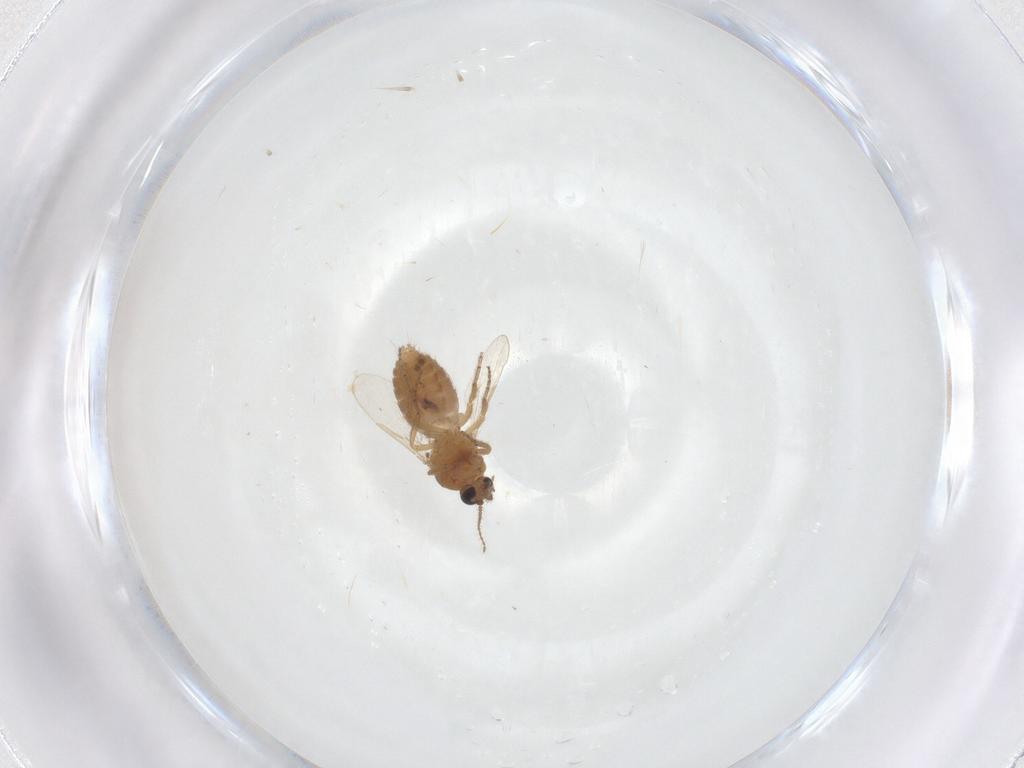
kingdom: Animalia
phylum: Arthropoda
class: Insecta
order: Diptera
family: Ceratopogonidae
